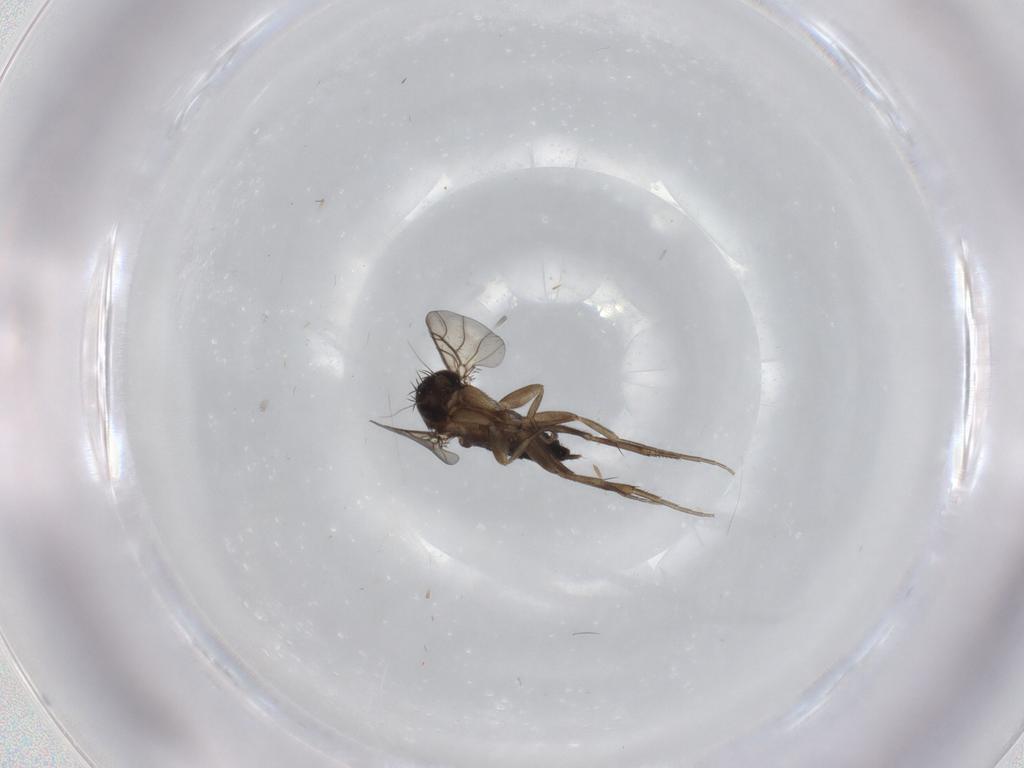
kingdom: Animalia
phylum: Arthropoda
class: Insecta
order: Diptera
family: Phoridae
